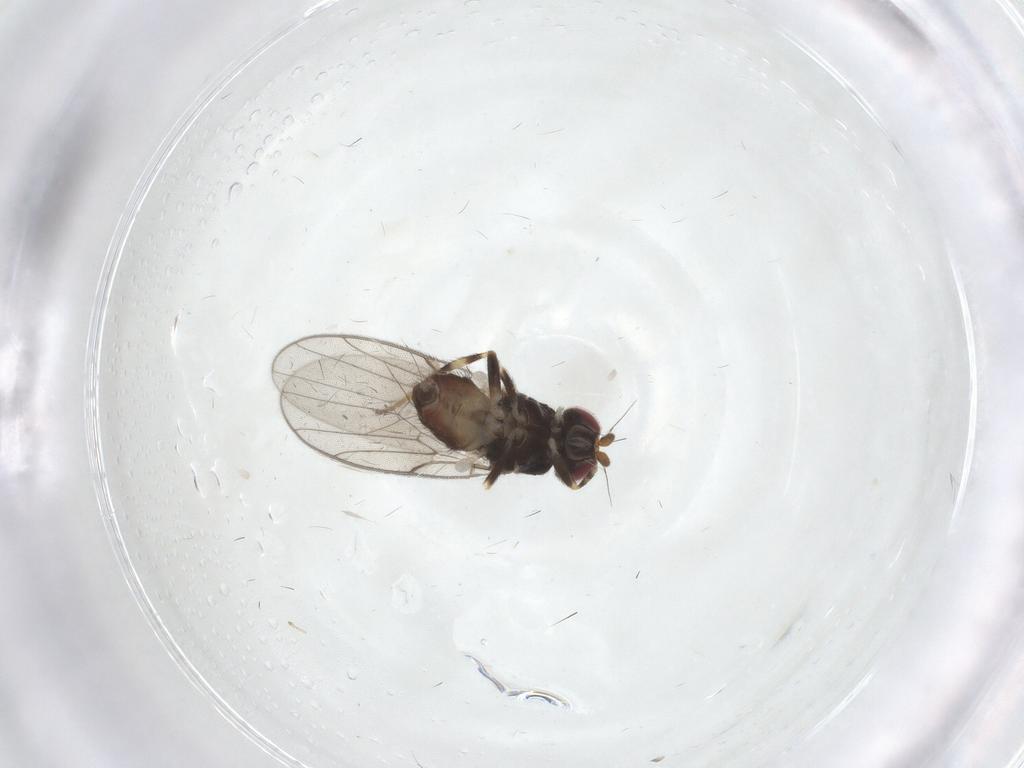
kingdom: Animalia
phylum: Arthropoda
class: Insecta
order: Diptera
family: Chloropidae
